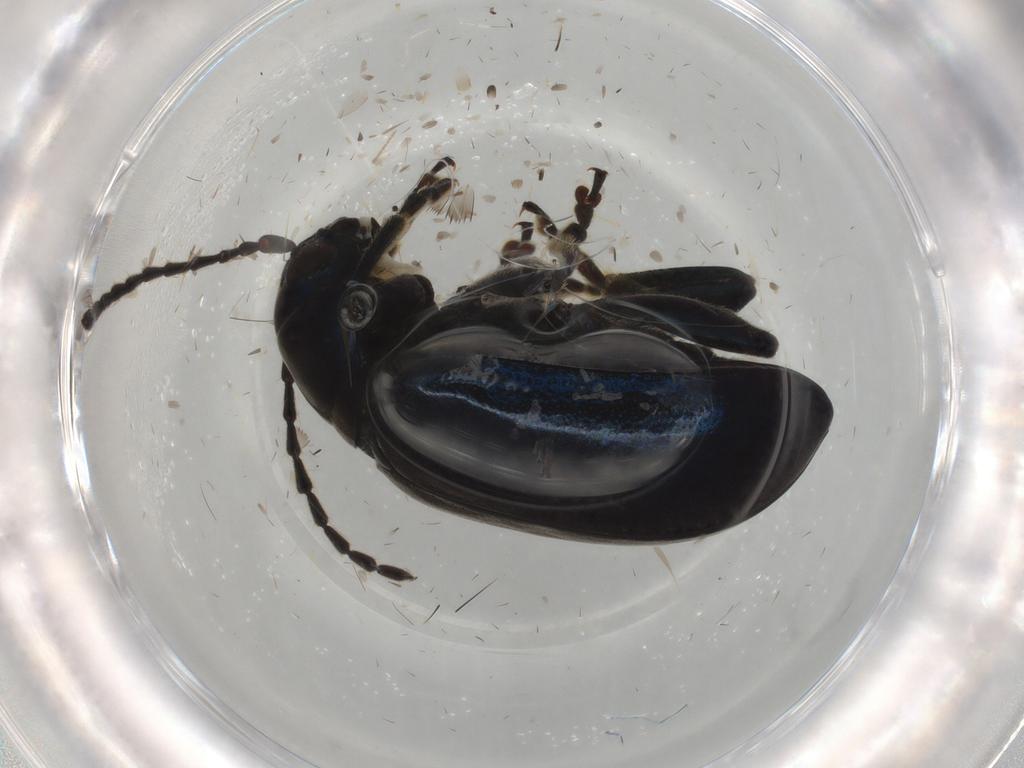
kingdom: Animalia
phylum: Arthropoda
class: Insecta
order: Coleoptera
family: Chrysomelidae
